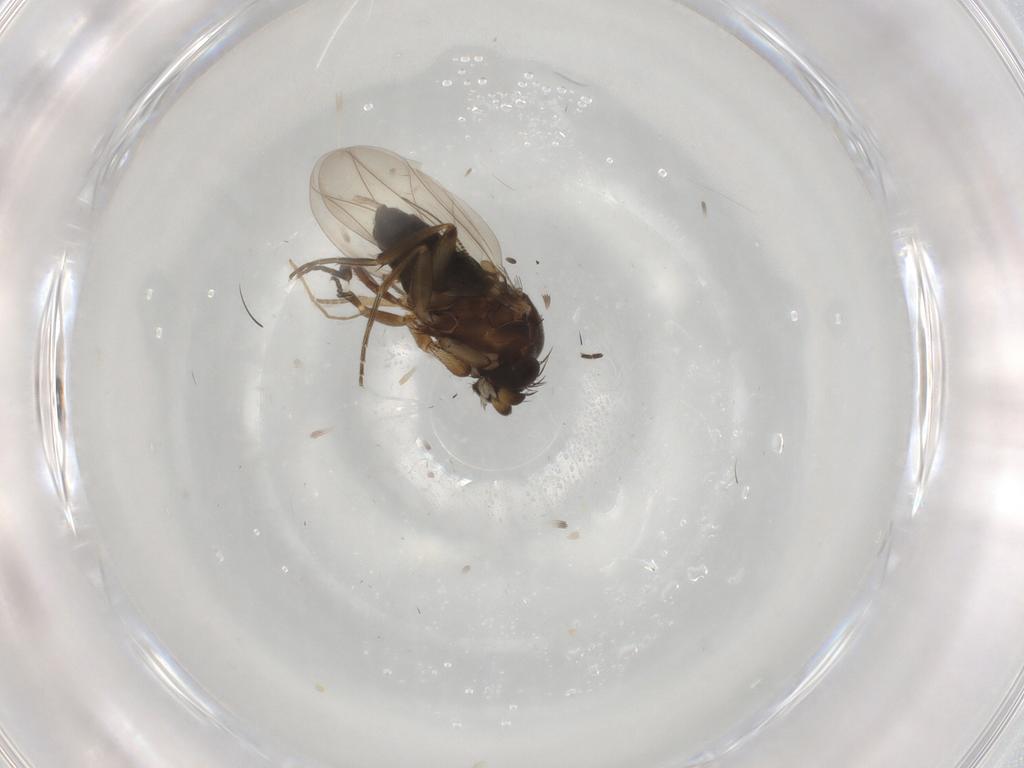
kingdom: Animalia
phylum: Arthropoda
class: Insecta
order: Diptera
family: Phoridae
